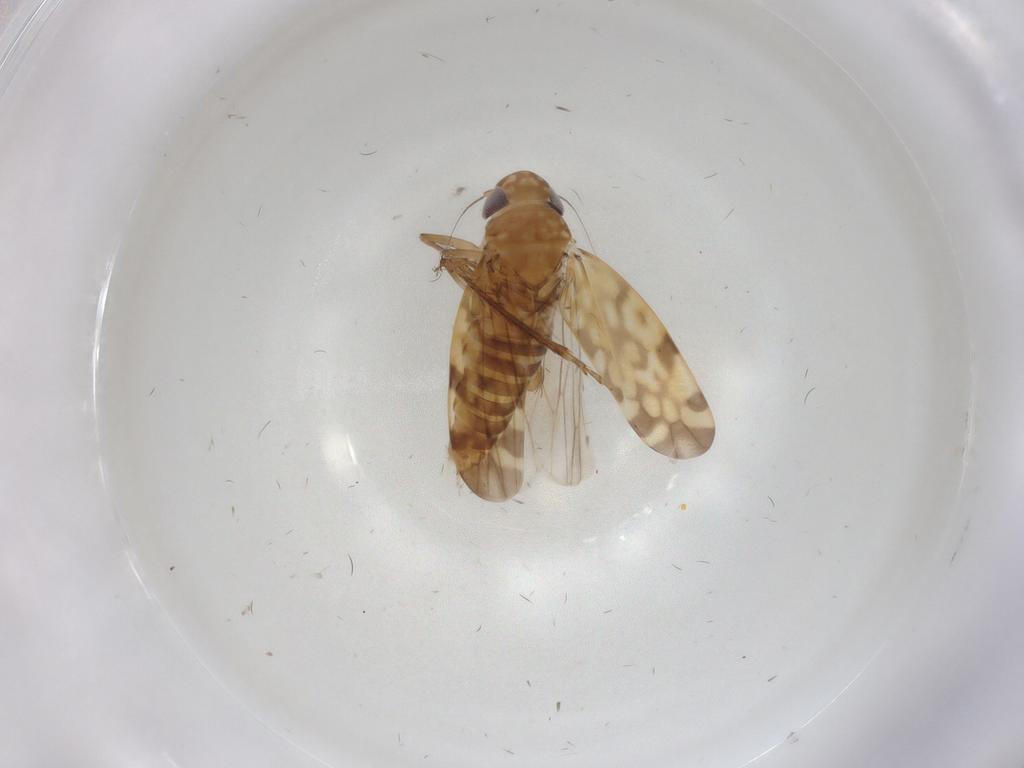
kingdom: Animalia
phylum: Arthropoda
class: Insecta
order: Hemiptera
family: Cicadellidae
